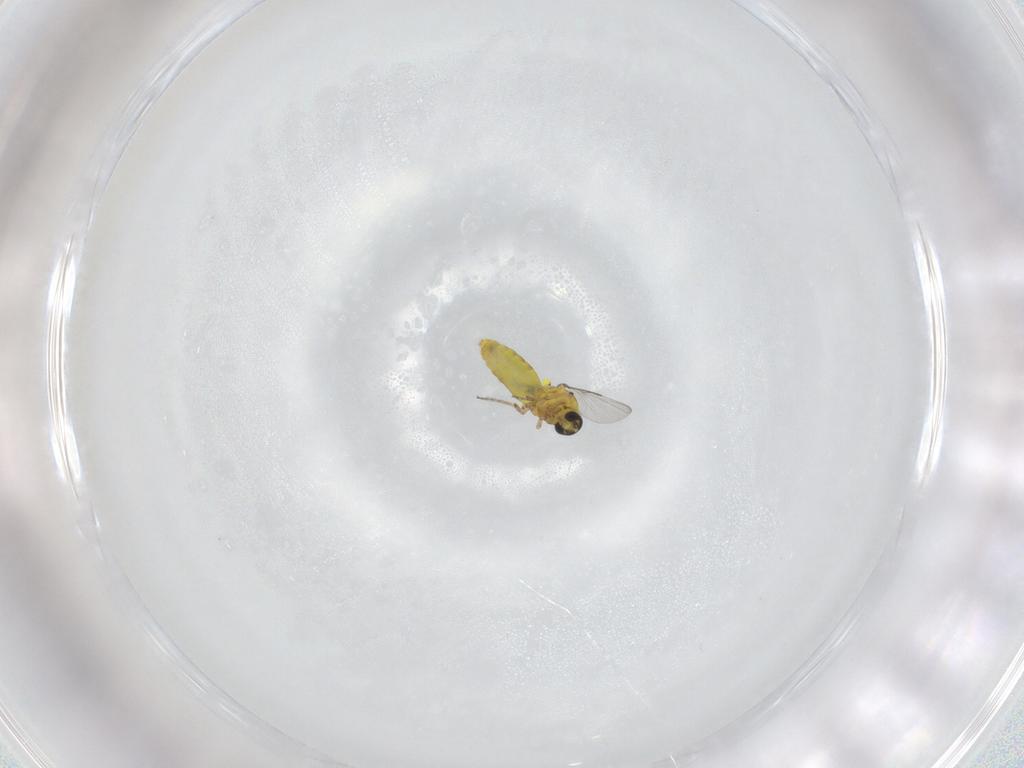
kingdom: Animalia
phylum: Arthropoda
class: Insecta
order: Diptera
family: Ceratopogonidae
